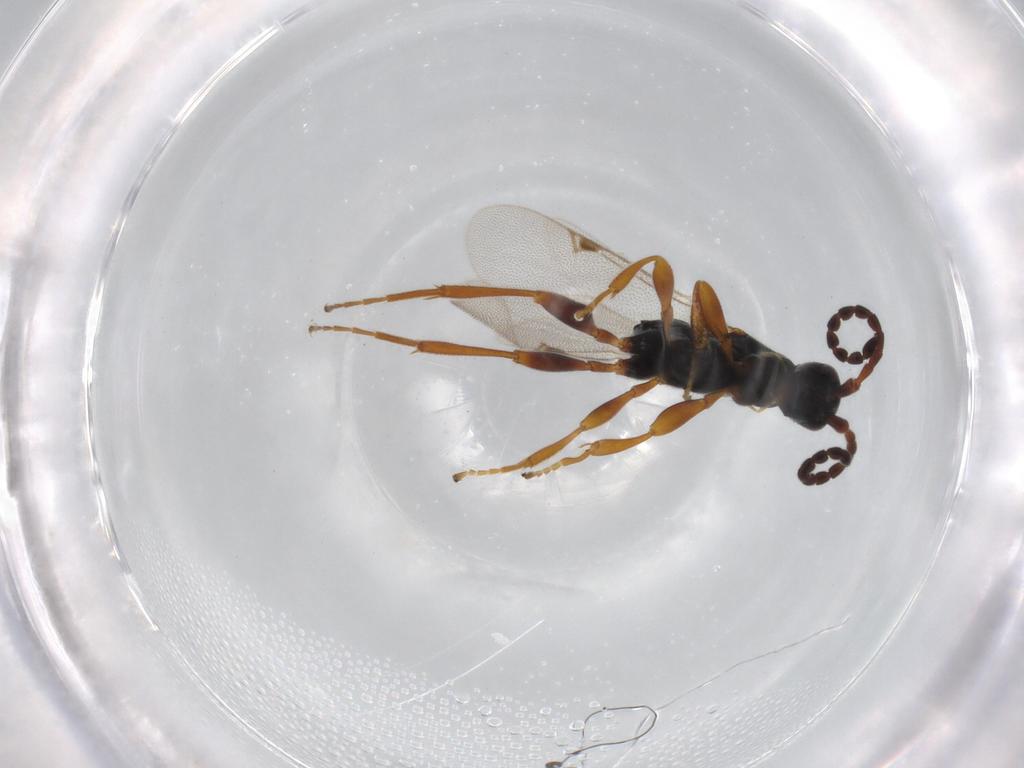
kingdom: Animalia
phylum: Arthropoda
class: Insecta
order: Hymenoptera
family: Proctotrupidae
